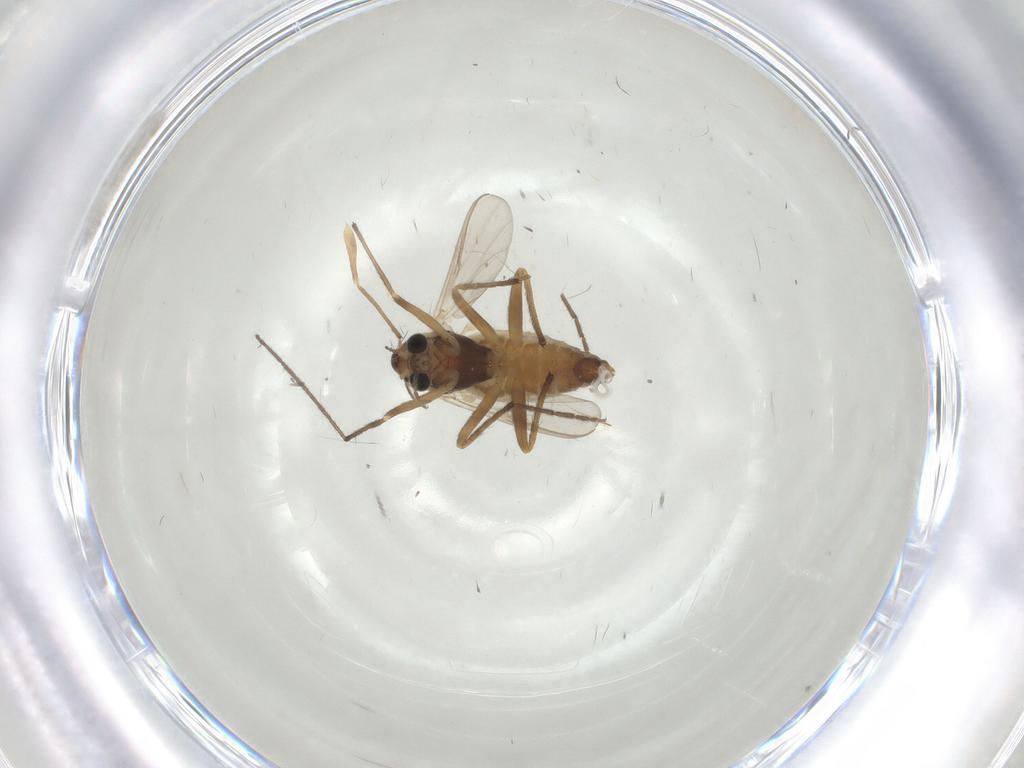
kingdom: Animalia
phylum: Arthropoda
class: Insecta
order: Diptera
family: Chironomidae
